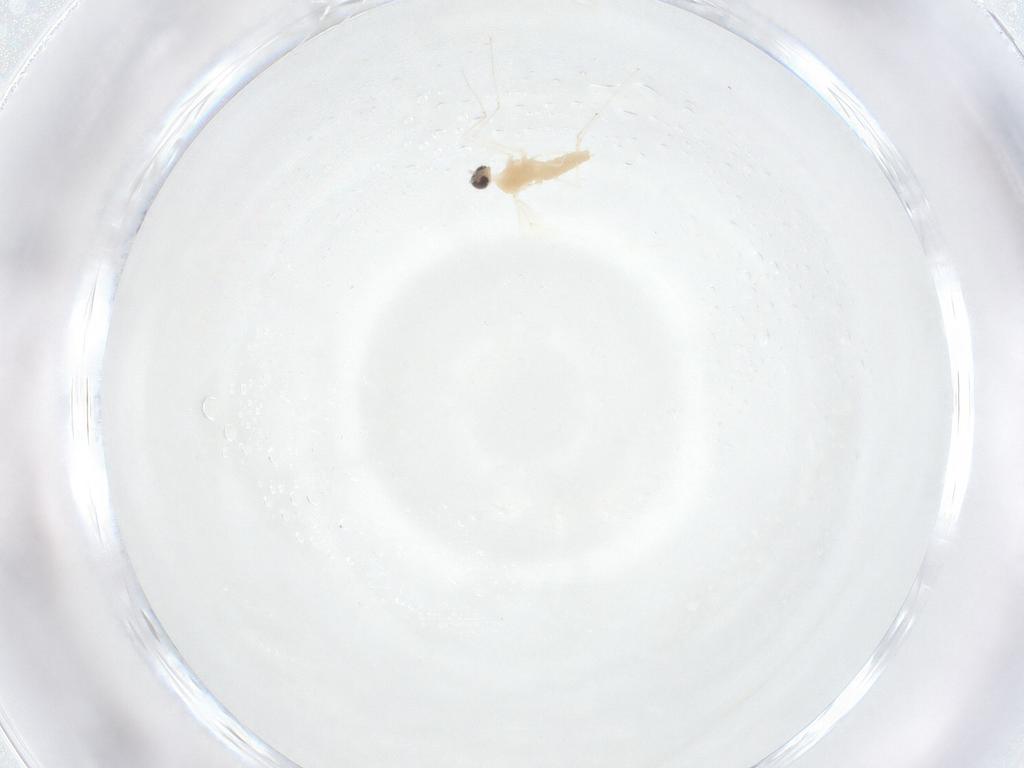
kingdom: Animalia
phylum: Arthropoda
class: Insecta
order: Diptera
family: Cecidomyiidae
